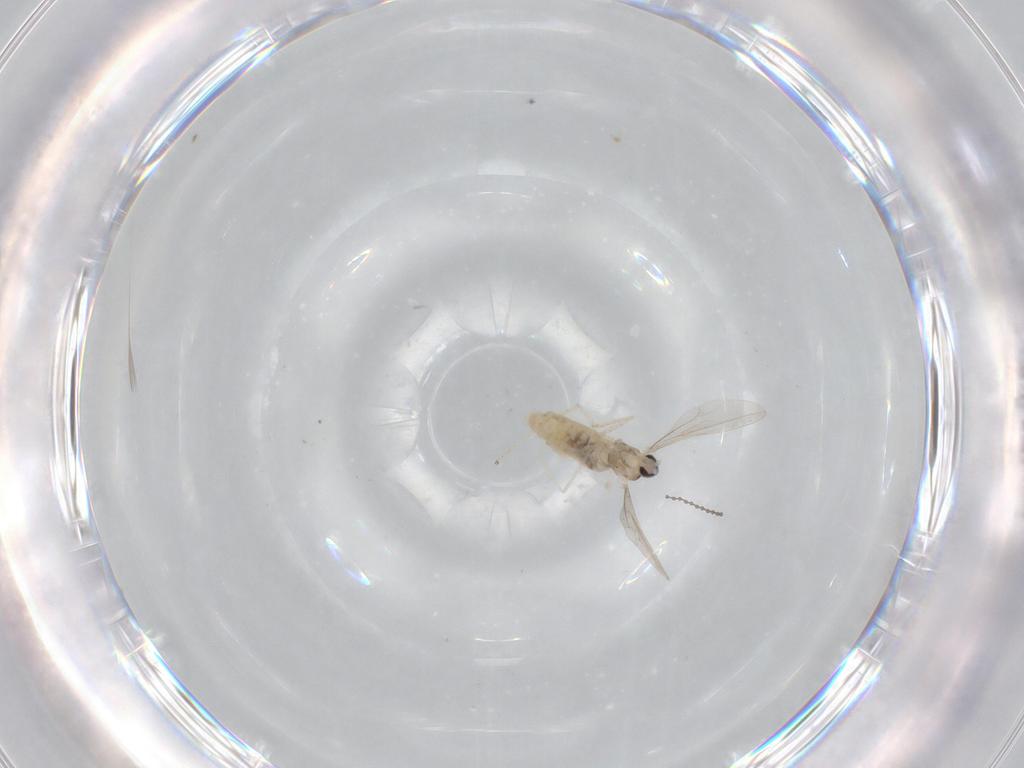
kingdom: Animalia
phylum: Arthropoda
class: Insecta
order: Diptera
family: Cecidomyiidae
